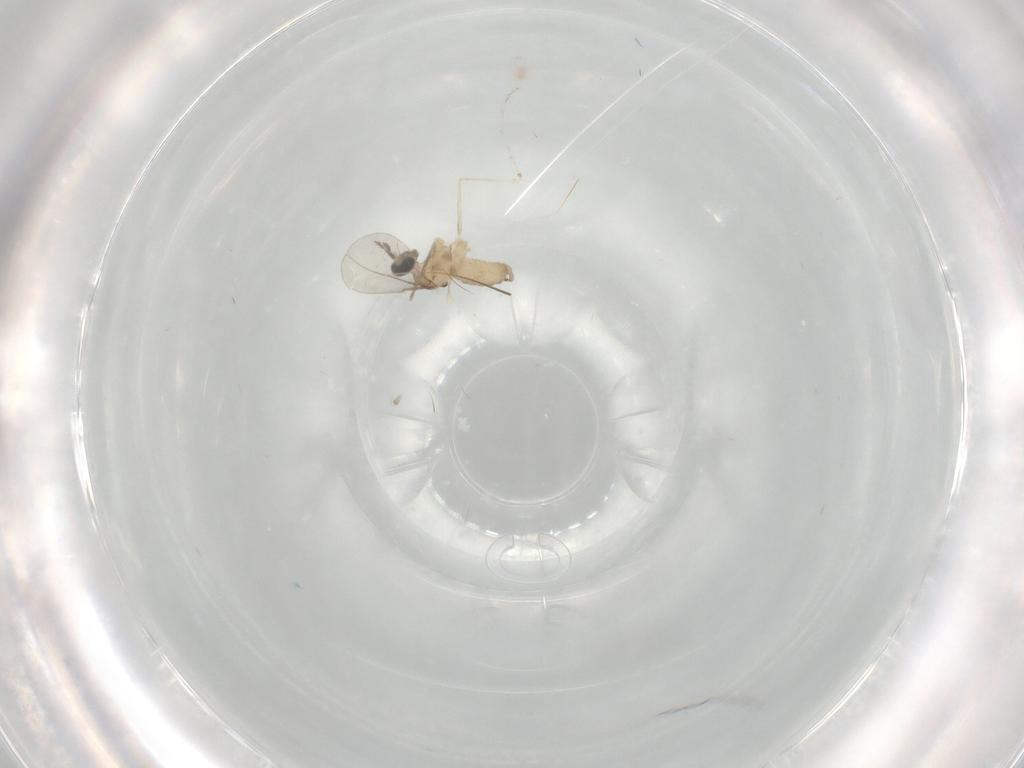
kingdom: Animalia
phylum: Arthropoda
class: Insecta
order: Diptera
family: Cecidomyiidae
